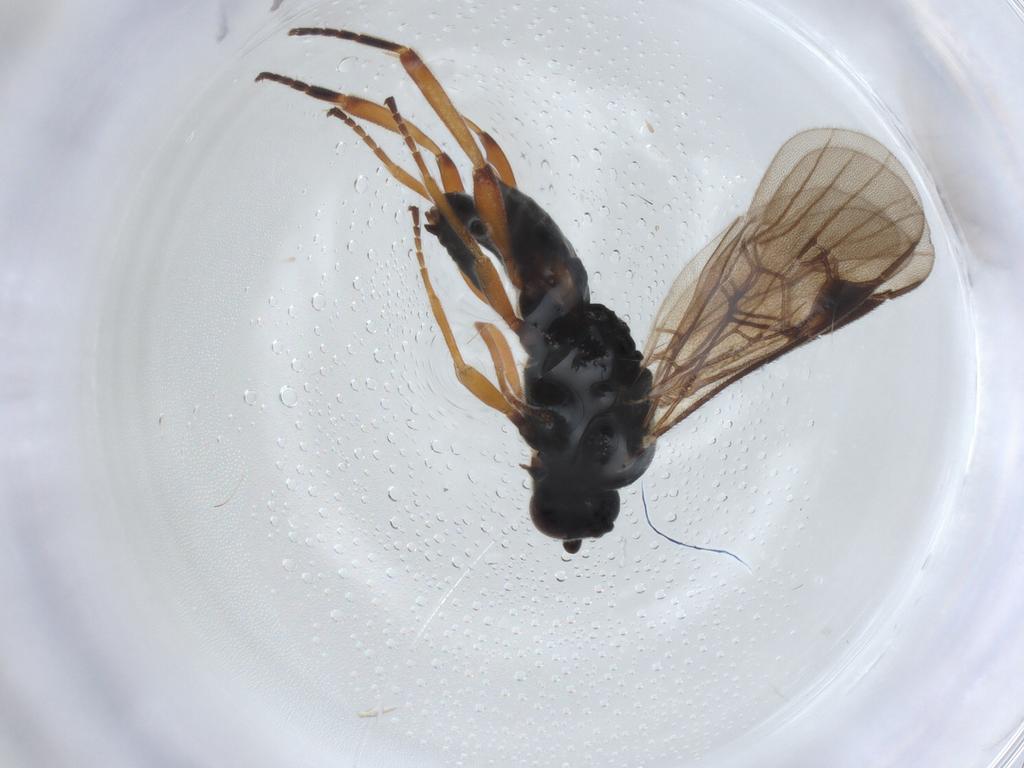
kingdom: Animalia
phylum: Arthropoda
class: Insecta
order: Hymenoptera
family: Braconidae
